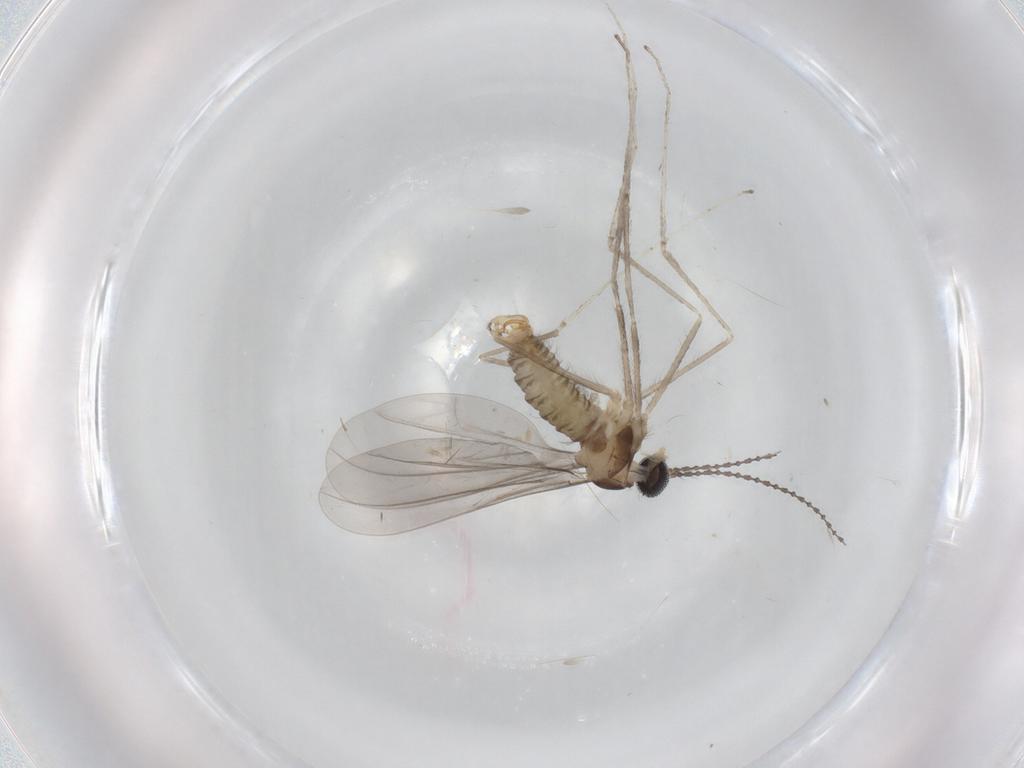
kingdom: Animalia
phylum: Arthropoda
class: Insecta
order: Diptera
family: Cecidomyiidae
